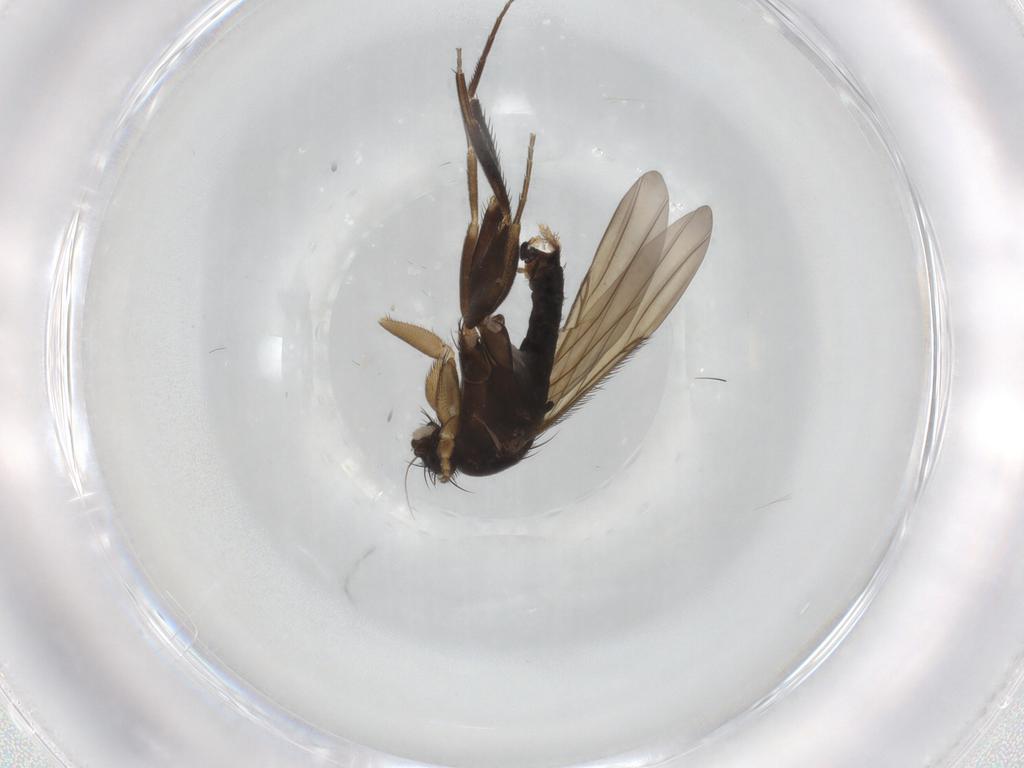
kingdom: Animalia
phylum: Arthropoda
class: Insecta
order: Diptera
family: Phoridae
